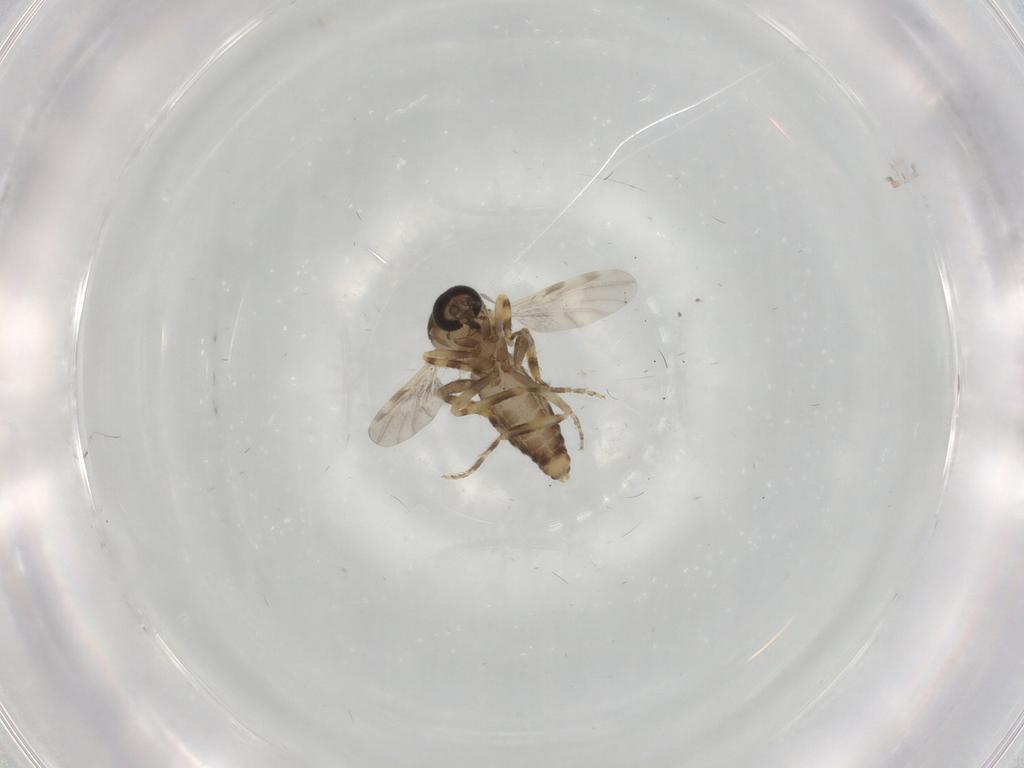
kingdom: Animalia
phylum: Arthropoda
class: Insecta
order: Diptera
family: Ceratopogonidae
